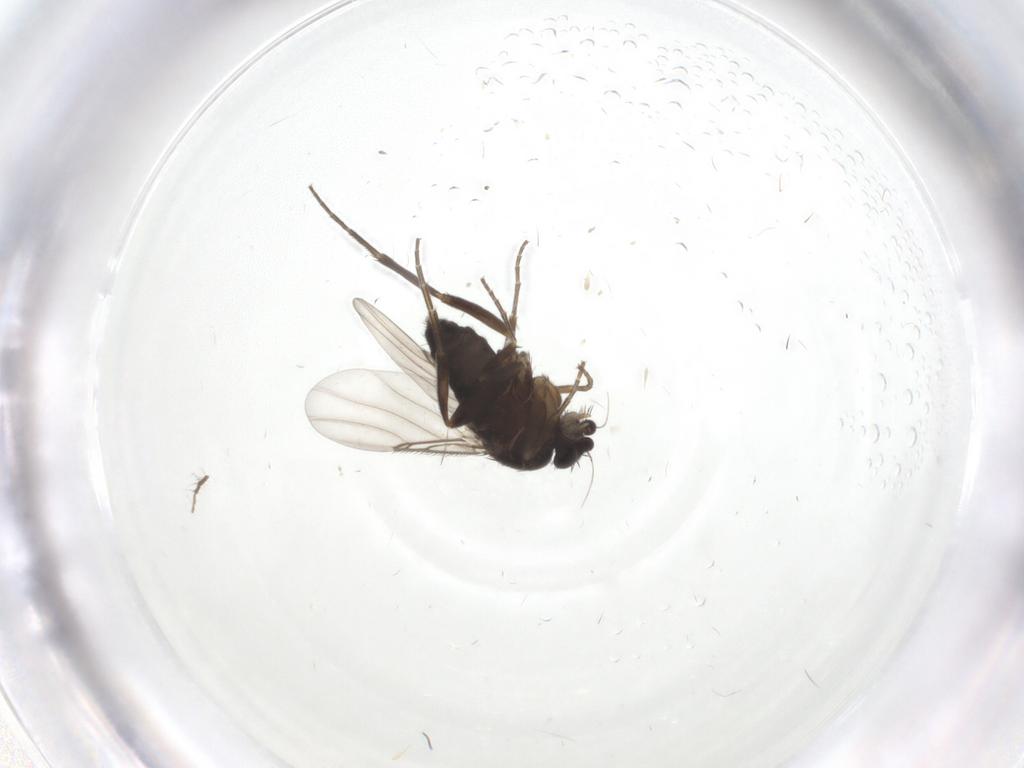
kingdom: Animalia
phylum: Arthropoda
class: Insecta
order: Diptera
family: Phoridae
